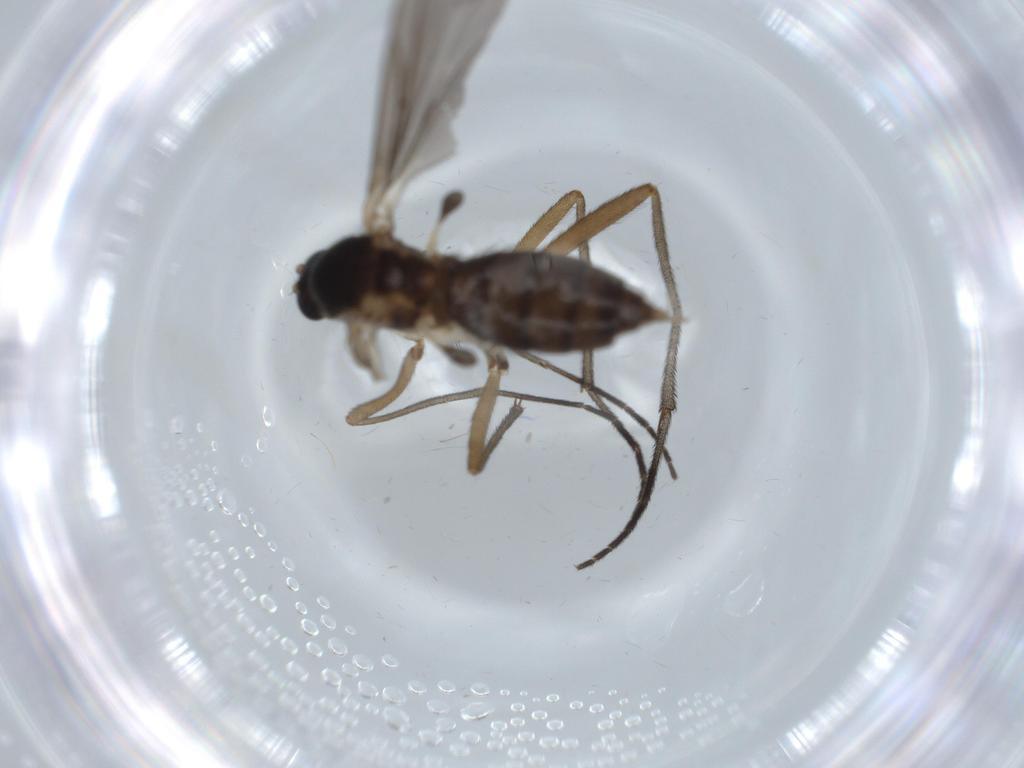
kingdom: Animalia
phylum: Arthropoda
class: Insecta
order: Diptera
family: Sciaridae
